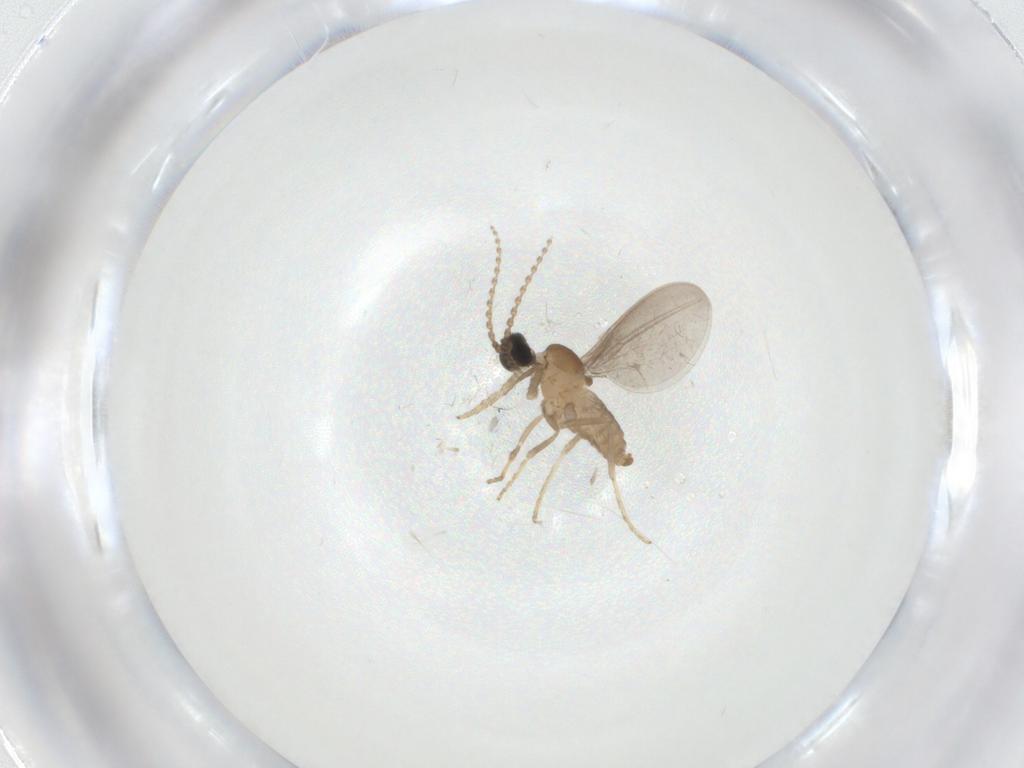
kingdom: Animalia
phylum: Arthropoda
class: Insecta
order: Diptera
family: Cecidomyiidae
